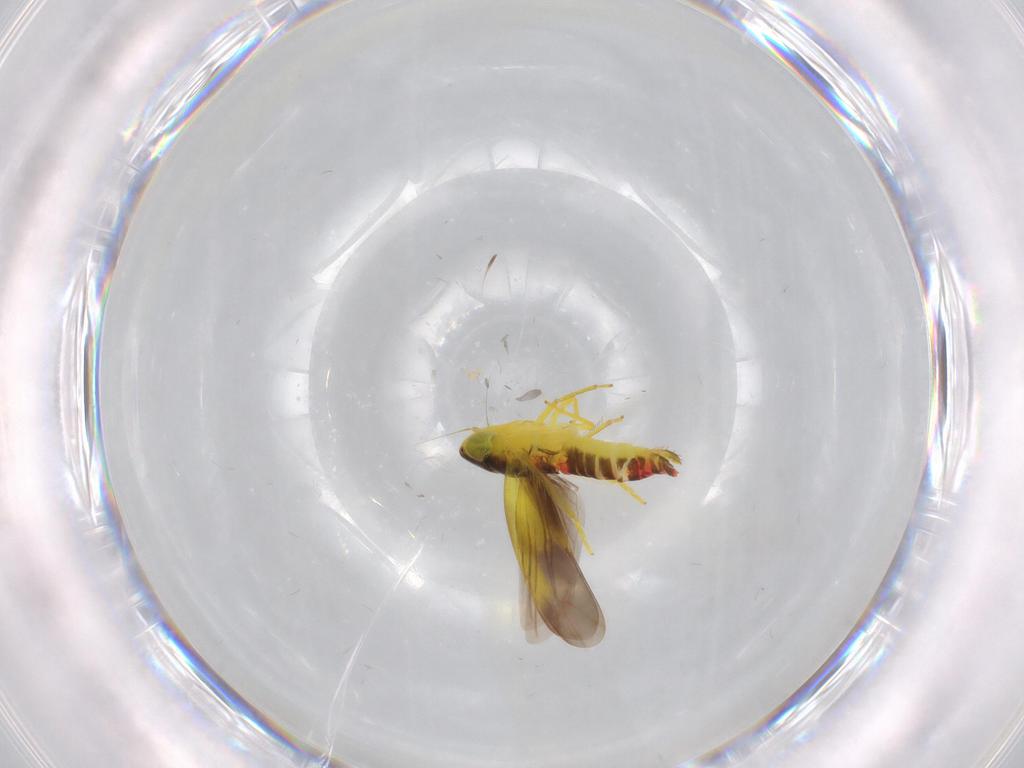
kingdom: Animalia
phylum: Arthropoda
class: Insecta
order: Hemiptera
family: Cicadellidae
